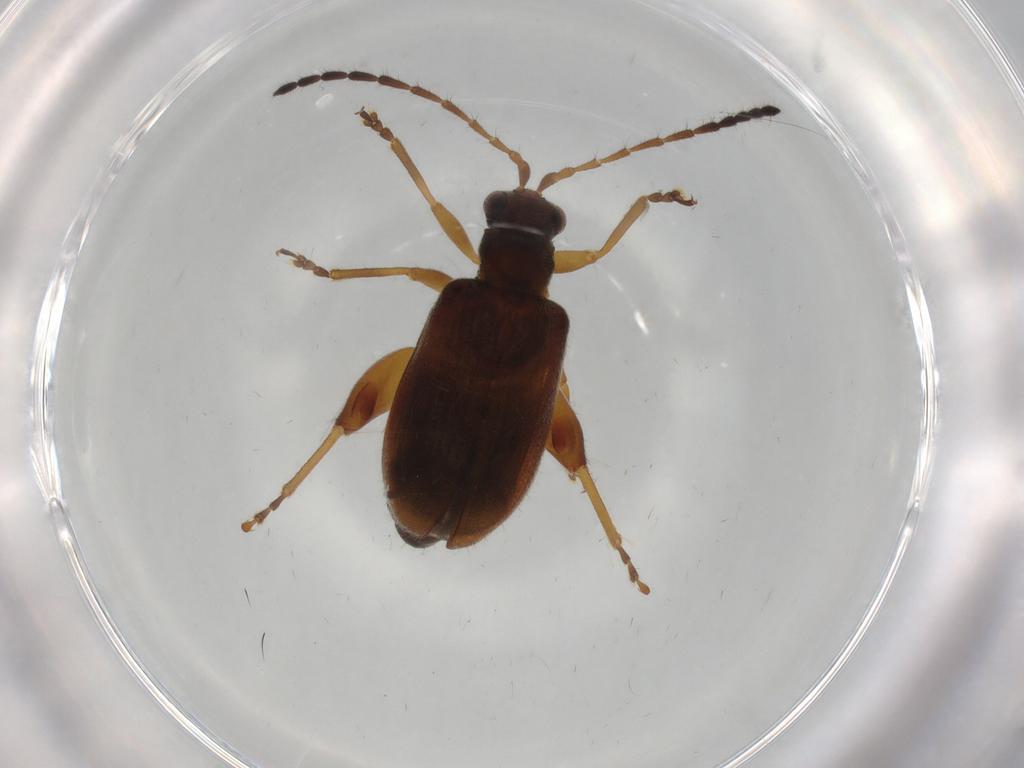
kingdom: Animalia
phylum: Arthropoda
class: Insecta
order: Coleoptera
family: Chrysomelidae
